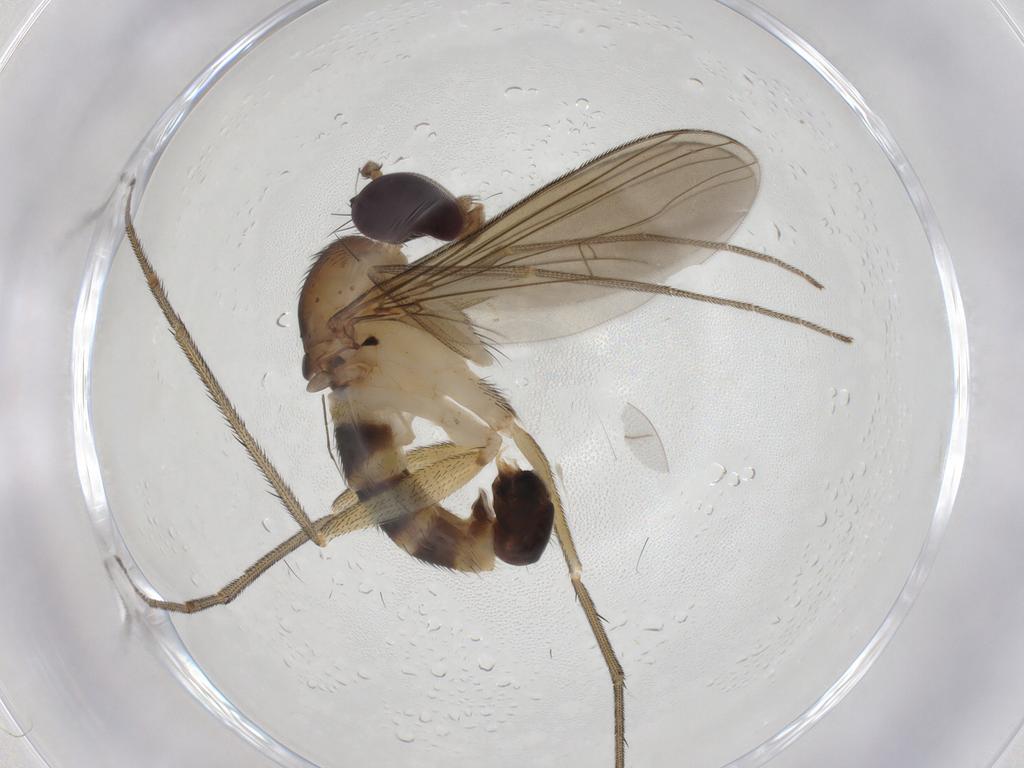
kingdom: Animalia
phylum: Arthropoda
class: Insecta
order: Diptera
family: Dolichopodidae
